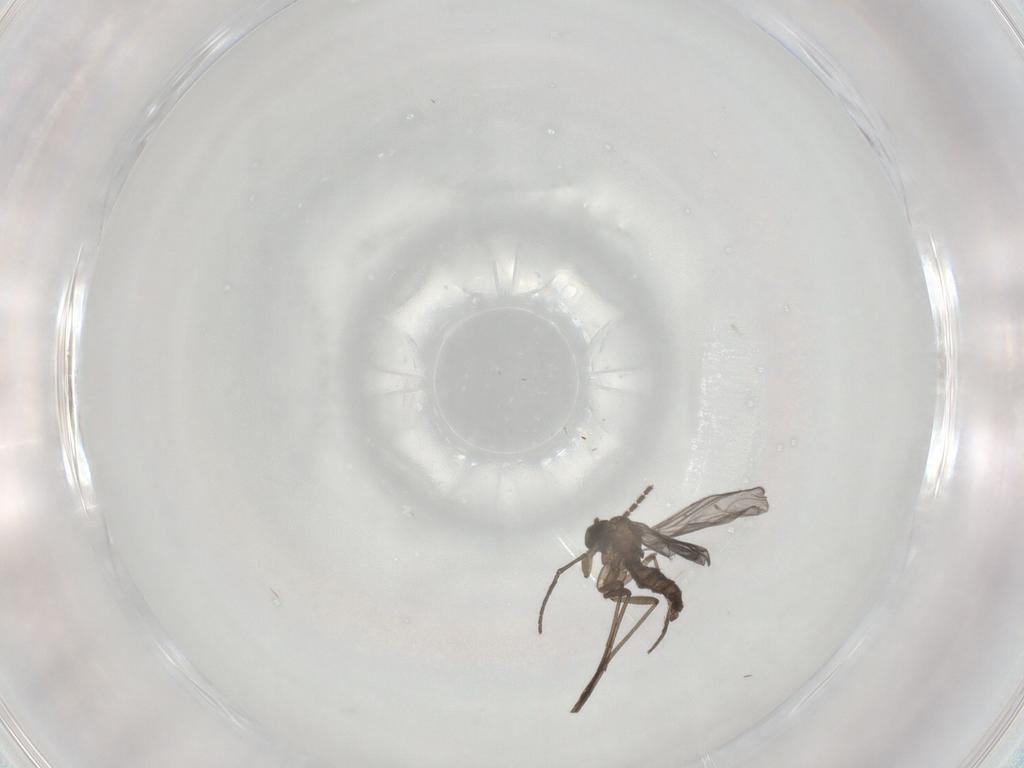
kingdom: Animalia
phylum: Arthropoda
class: Insecta
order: Diptera
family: Sciaridae
